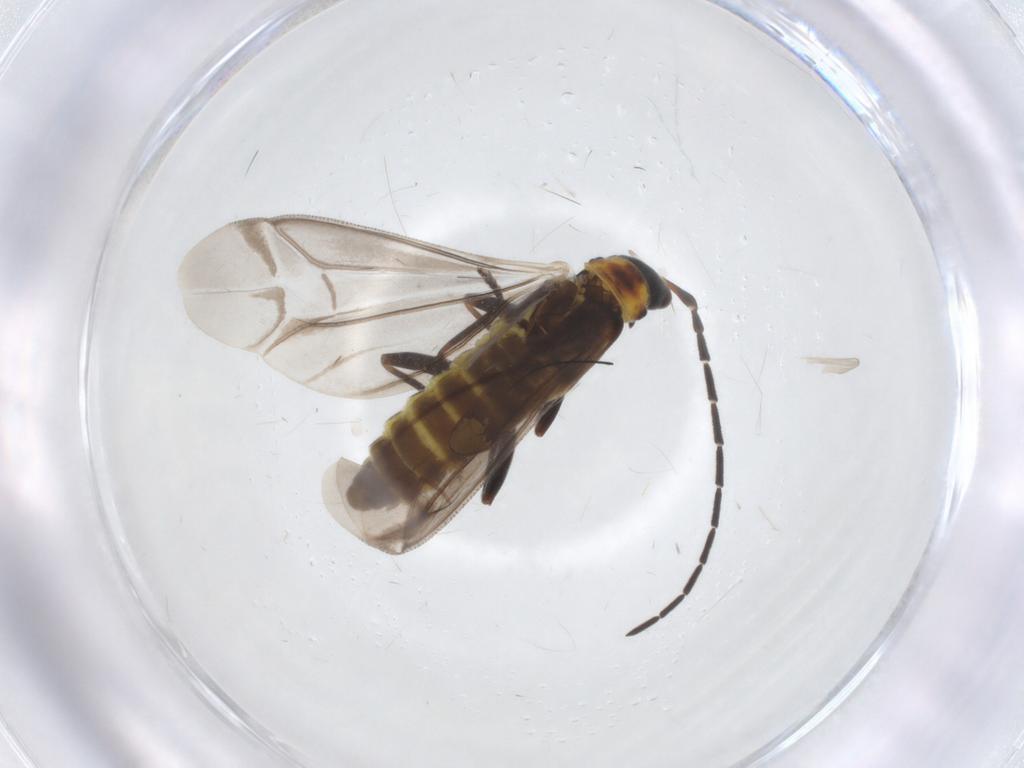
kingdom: Animalia
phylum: Arthropoda
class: Insecta
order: Coleoptera
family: Cantharidae
